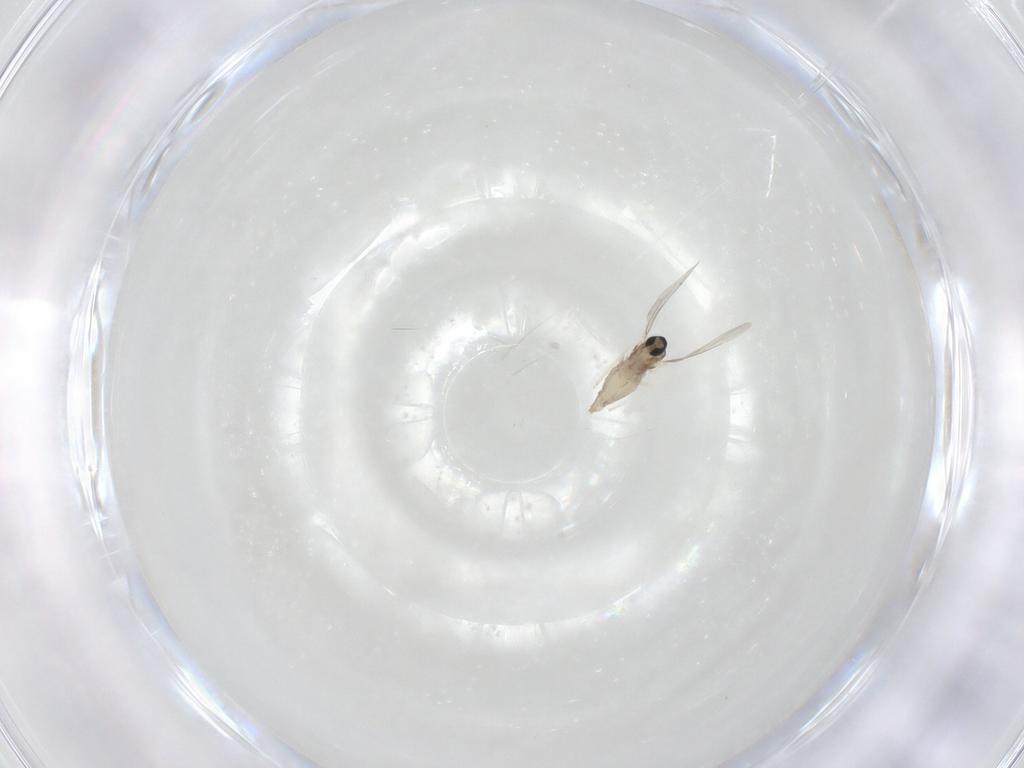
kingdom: Animalia
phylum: Arthropoda
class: Insecta
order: Diptera
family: Cecidomyiidae
